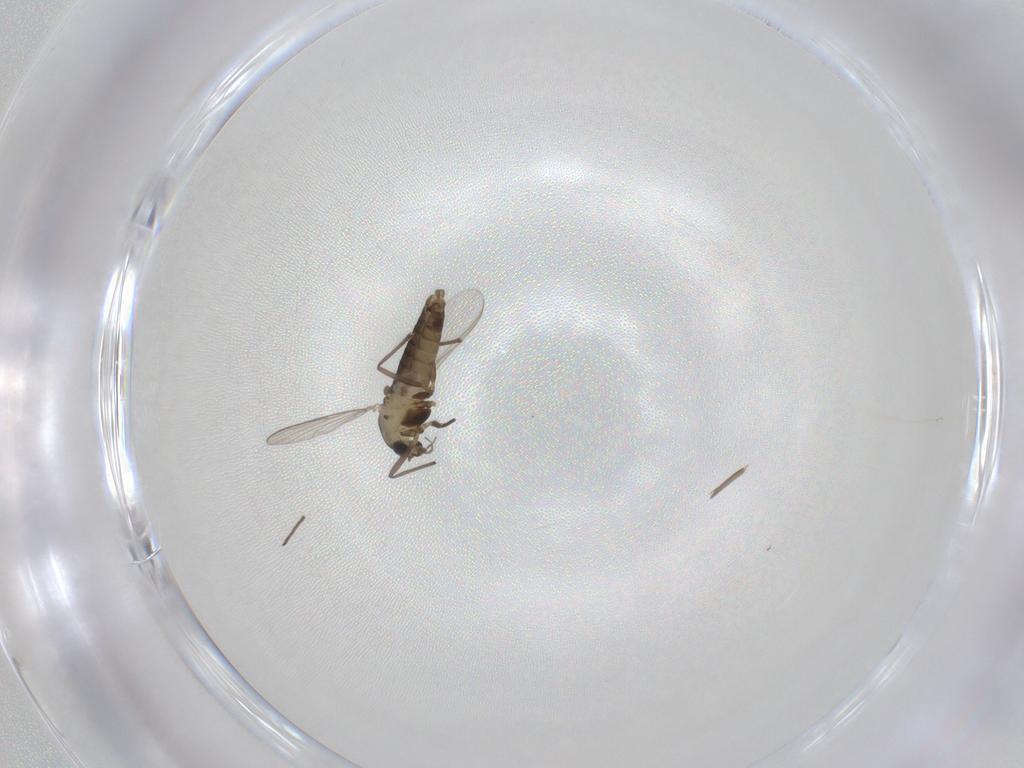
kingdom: Animalia
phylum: Arthropoda
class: Insecta
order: Diptera
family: Chironomidae
